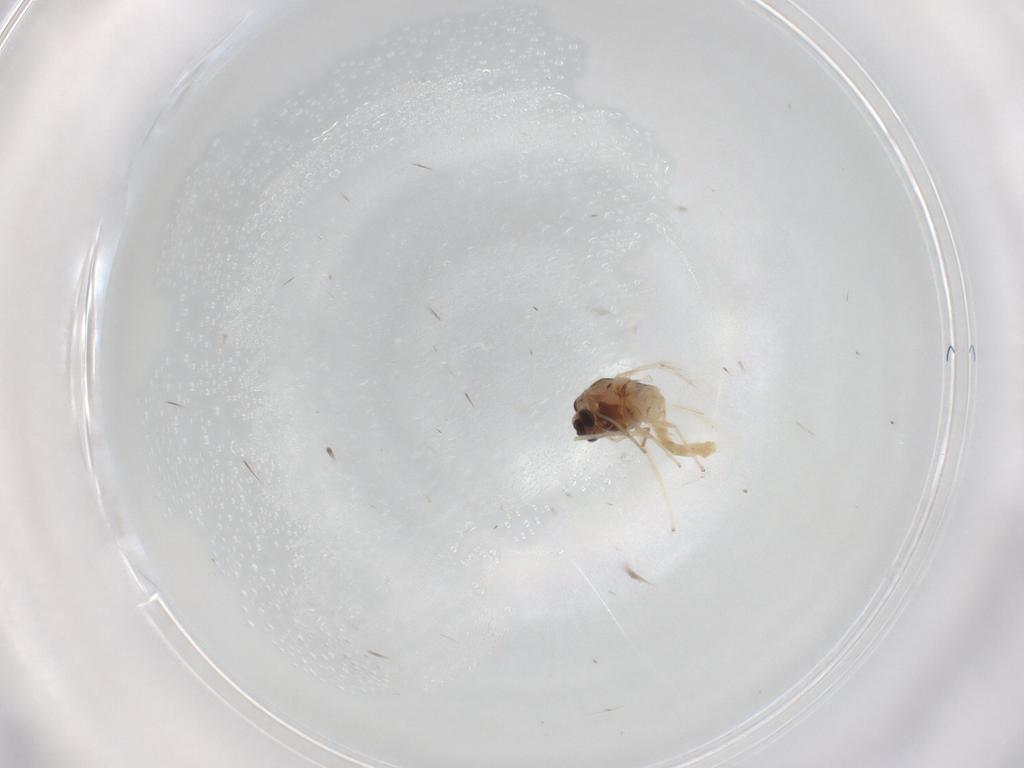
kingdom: Animalia
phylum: Arthropoda
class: Insecta
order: Diptera
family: Chironomidae
